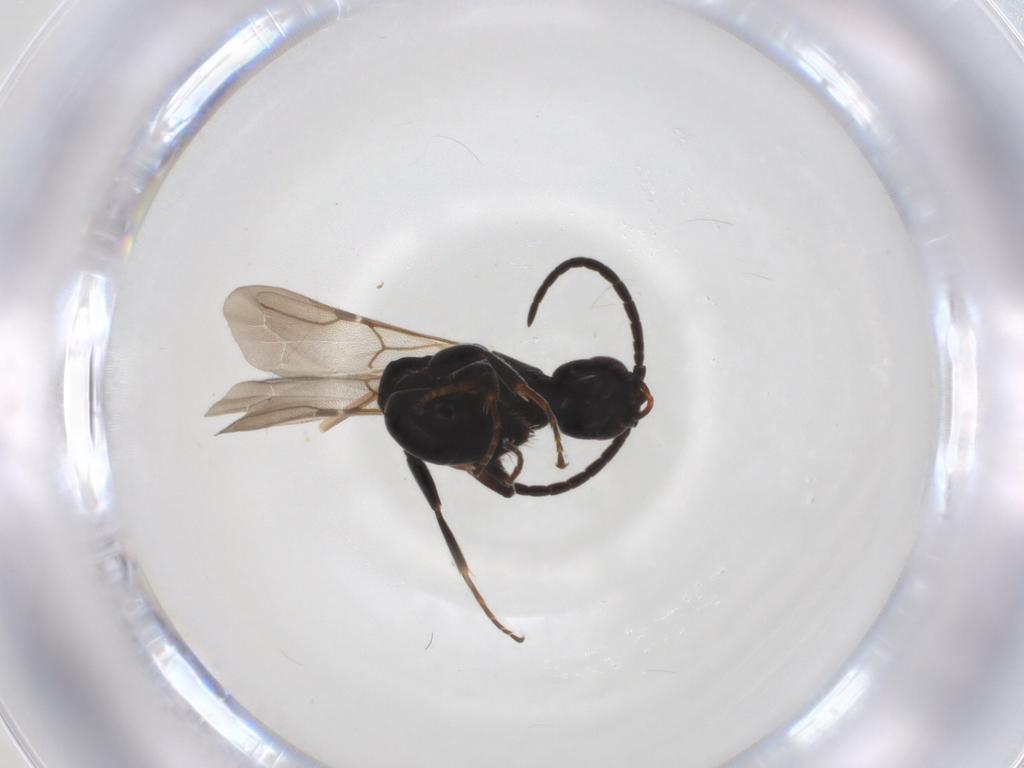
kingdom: Animalia
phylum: Arthropoda
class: Insecta
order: Hymenoptera
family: Bethylidae
